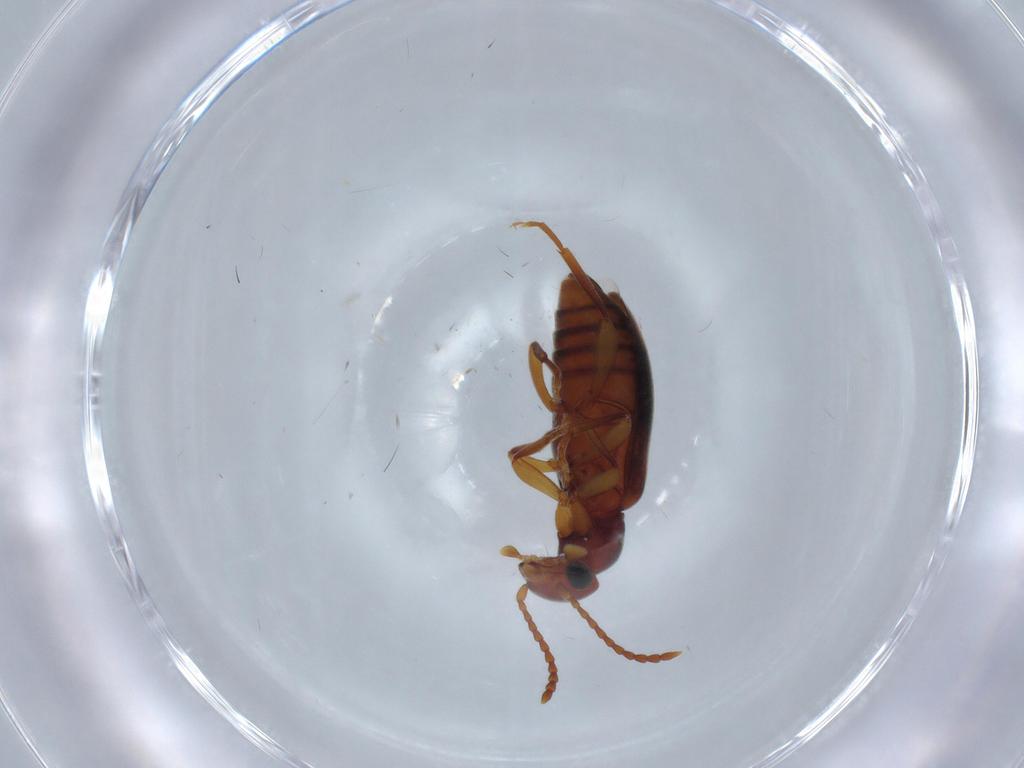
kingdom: Animalia
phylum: Arthropoda
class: Insecta
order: Coleoptera
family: Anthicidae
